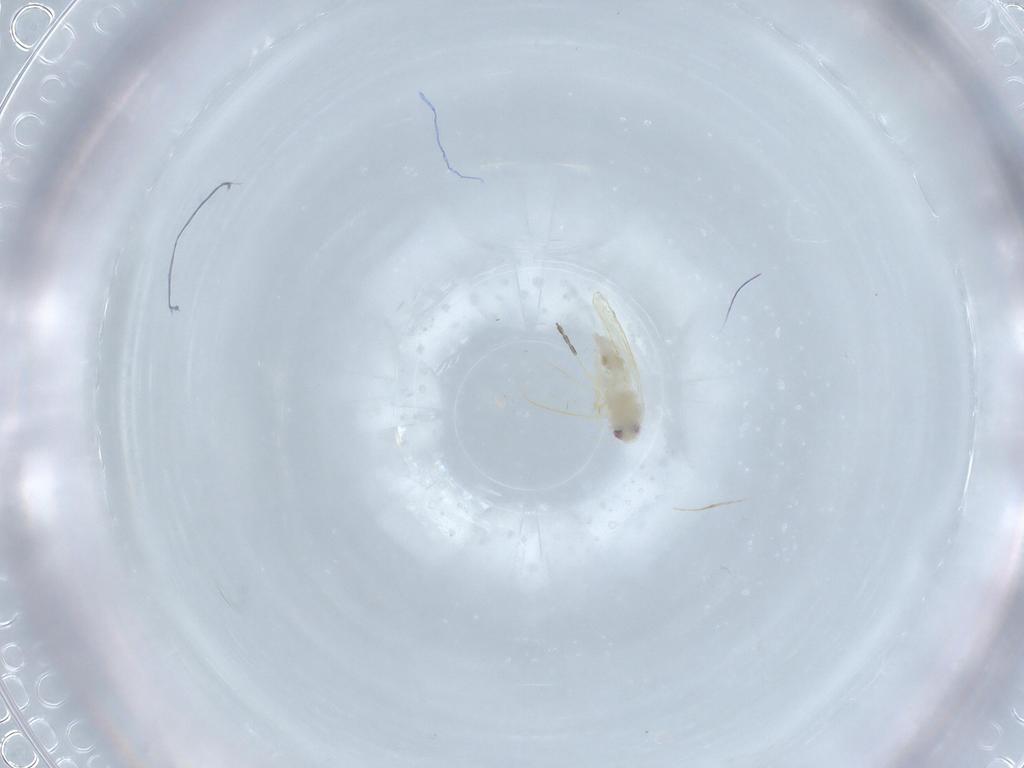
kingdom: Animalia
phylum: Arthropoda
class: Insecta
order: Hemiptera
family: Aleyrodidae
